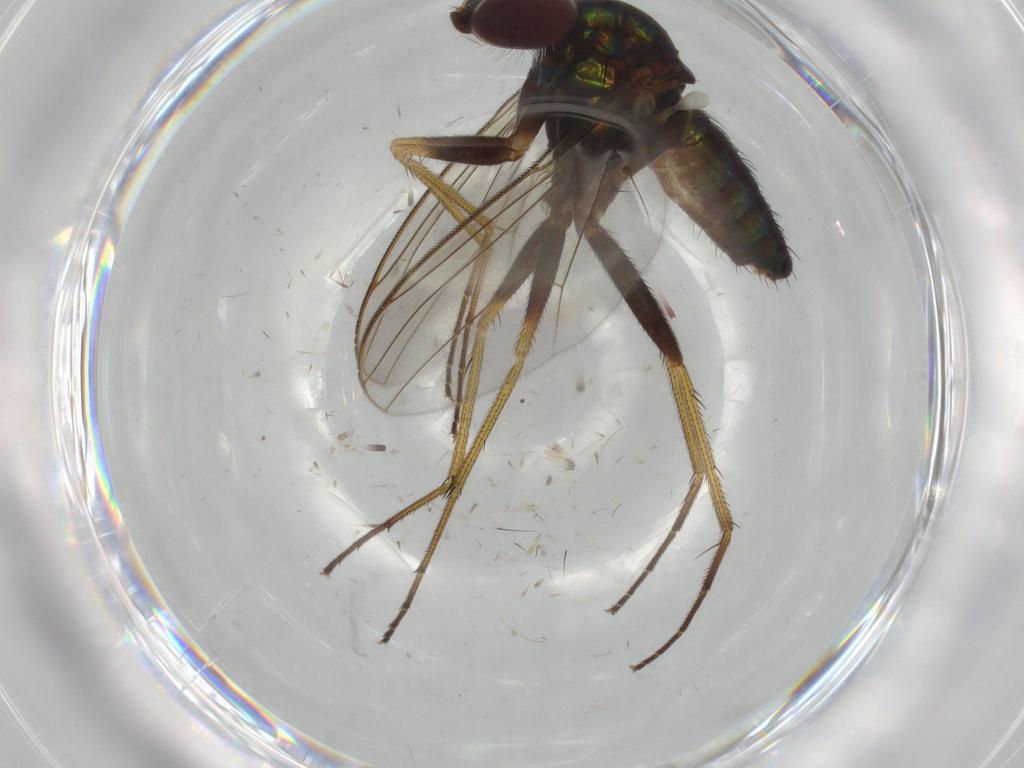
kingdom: Animalia
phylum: Arthropoda
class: Insecta
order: Diptera
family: Dolichopodidae
